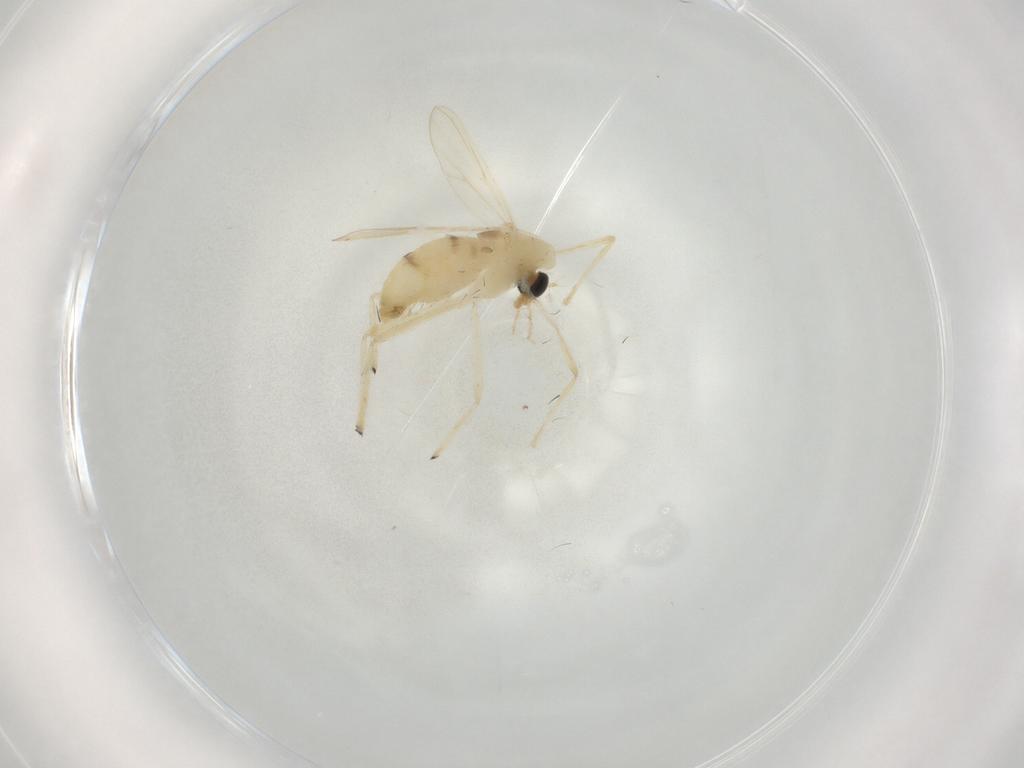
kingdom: Animalia
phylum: Arthropoda
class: Insecta
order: Diptera
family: Chironomidae
